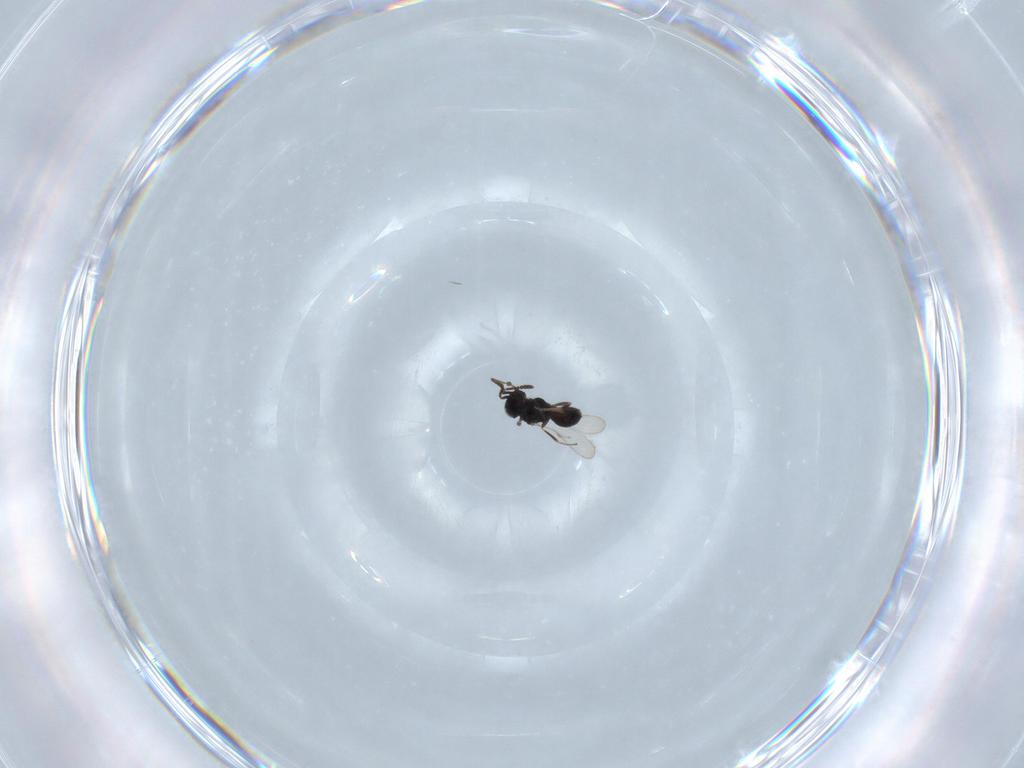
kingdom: Animalia
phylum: Arthropoda
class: Insecta
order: Hymenoptera
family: Scelionidae
